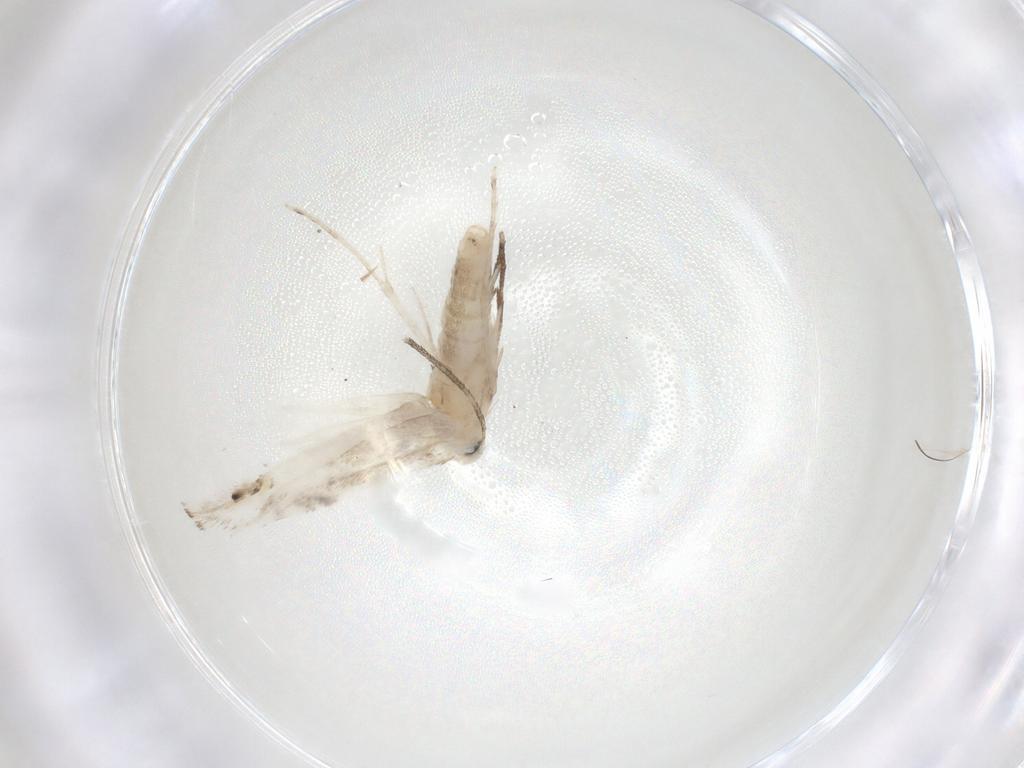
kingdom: Animalia
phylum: Arthropoda
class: Insecta
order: Lepidoptera
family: Lyonetiidae
